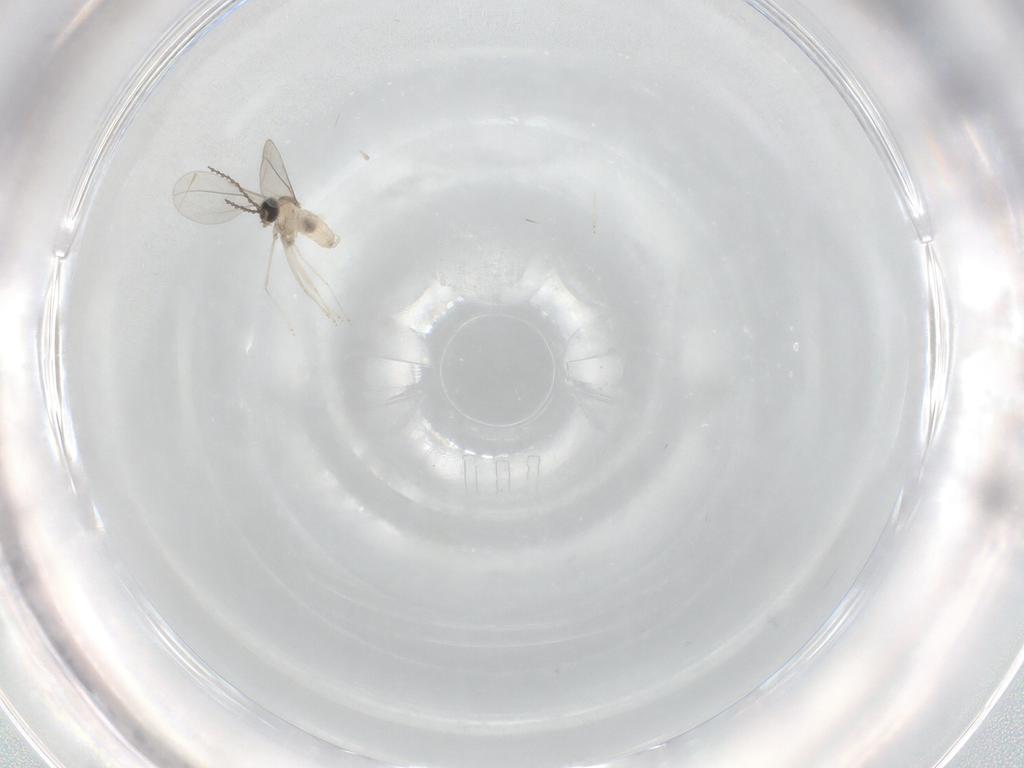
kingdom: Animalia
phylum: Arthropoda
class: Insecta
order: Diptera
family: Cecidomyiidae
